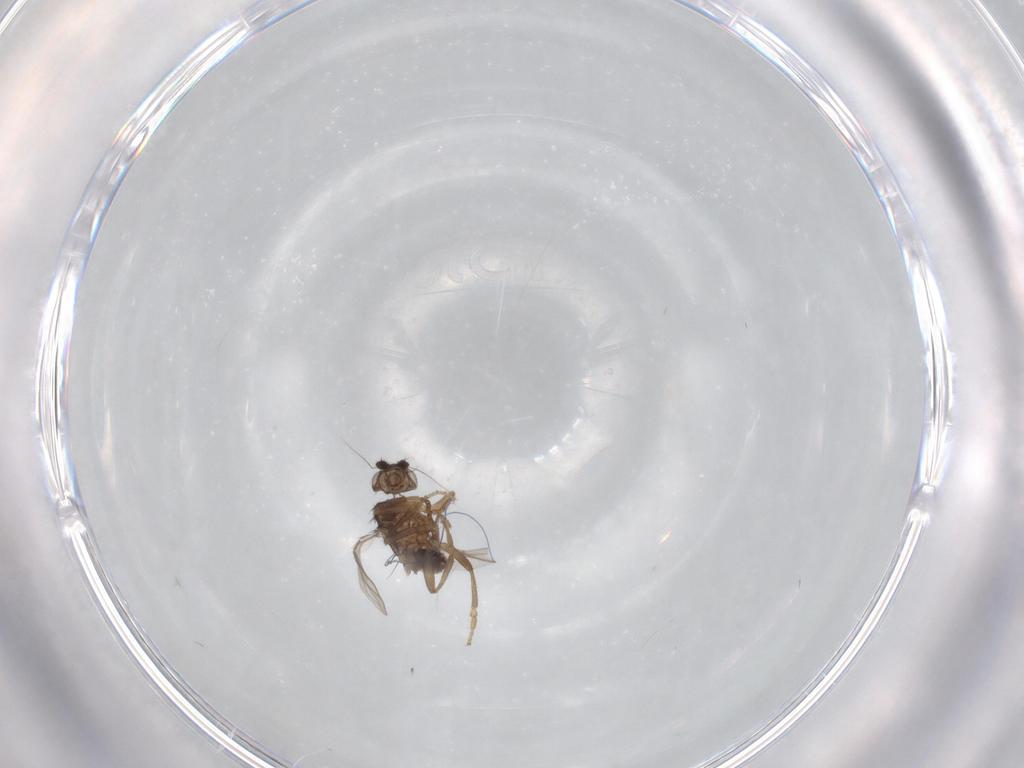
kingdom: Animalia
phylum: Arthropoda
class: Insecta
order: Diptera
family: Sphaeroceridae
